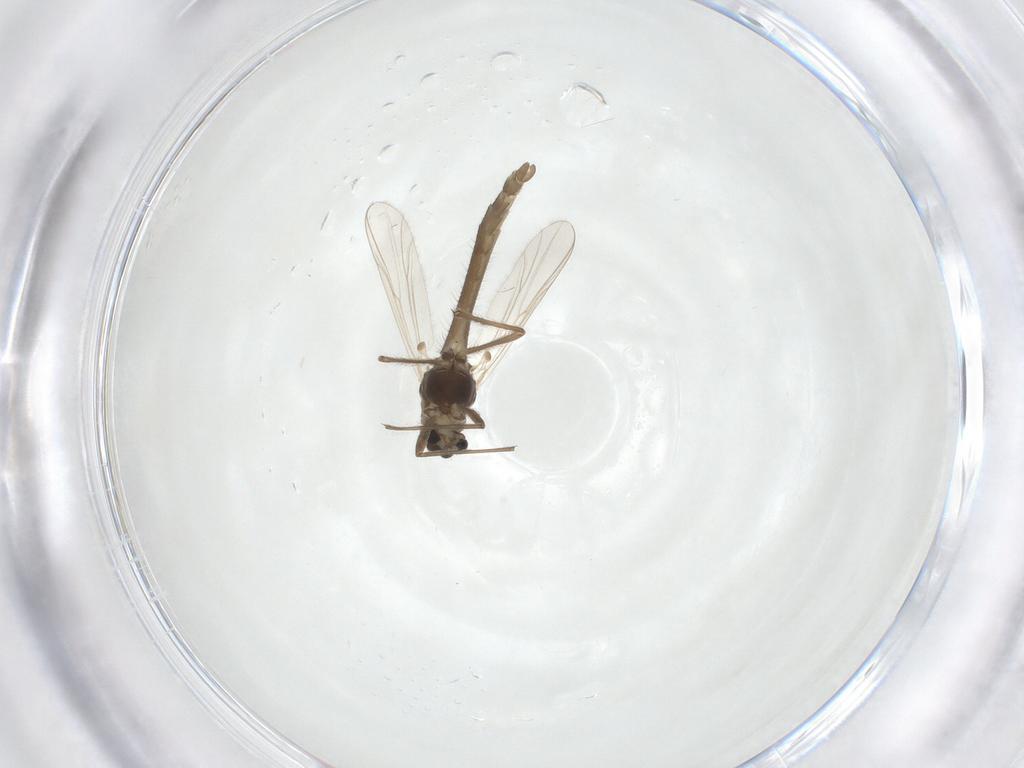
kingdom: Animalia
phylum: Arthropoda
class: Insecta
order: Diptera
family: Chironomidae
